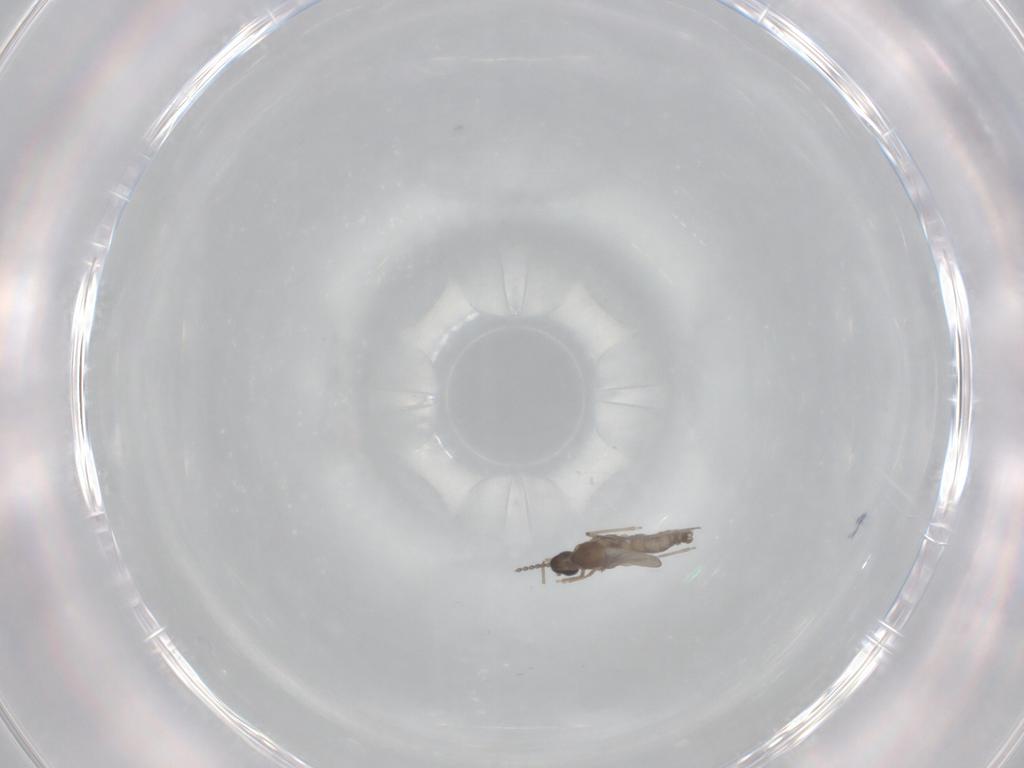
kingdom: Animalia
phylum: Arthropoda
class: Insecta
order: Diptera
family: Cecidomyiidae
